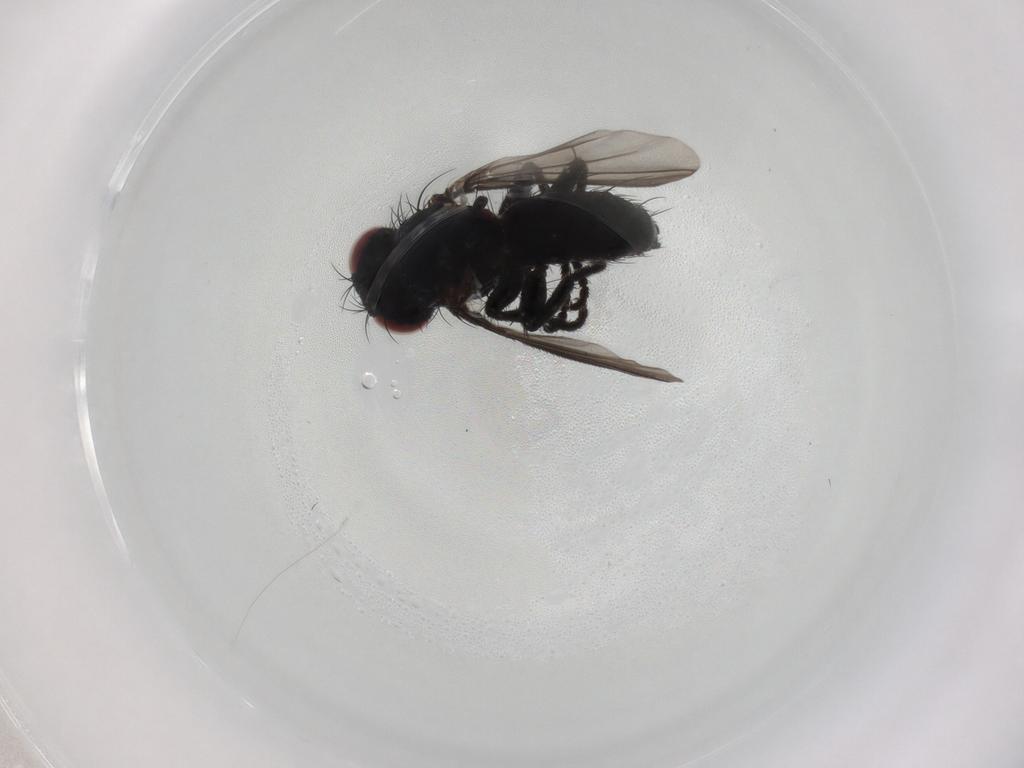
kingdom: Animalia
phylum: Arthropoda
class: Insecta
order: Diptera
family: Tachinidae
